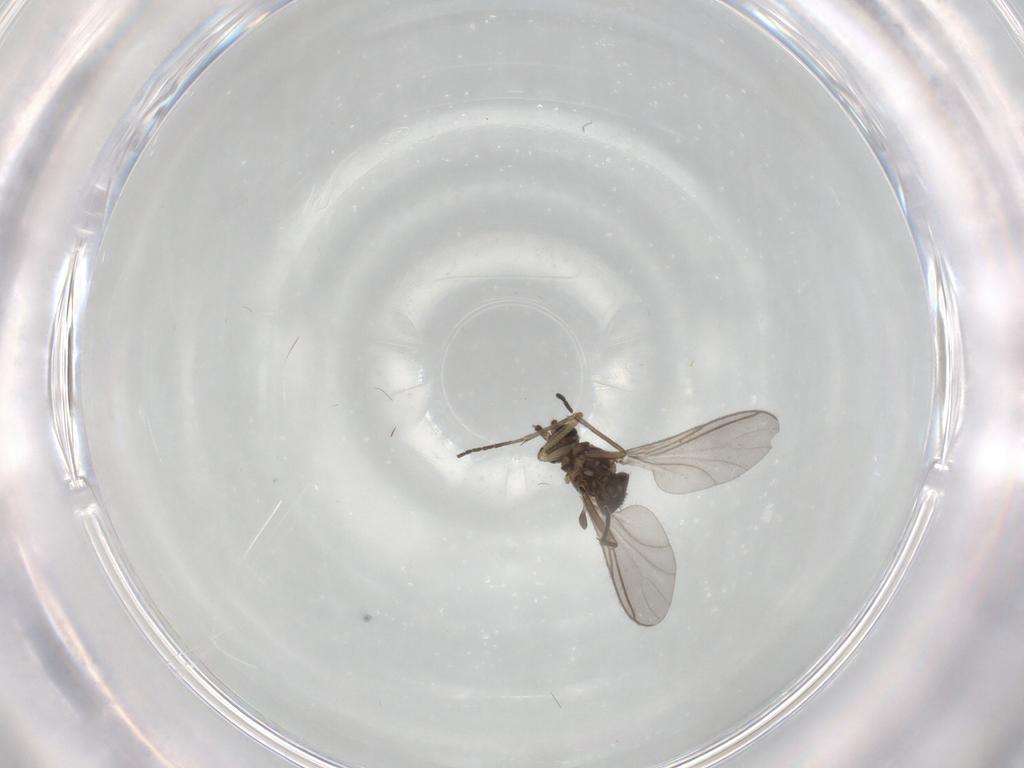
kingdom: Animalia
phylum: Arthropoda
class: Insecta
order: Diptera
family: Sciaridae
